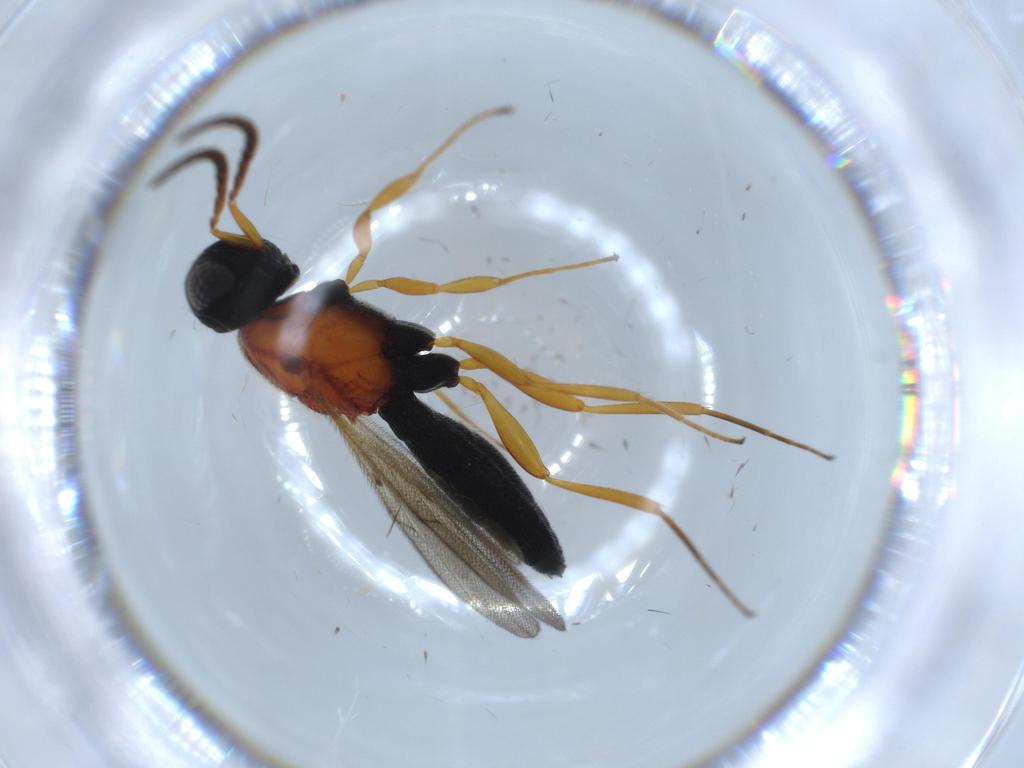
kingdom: Animalia
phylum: Arthropoda
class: Insecta
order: Hymenoptera
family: Scelionidae
